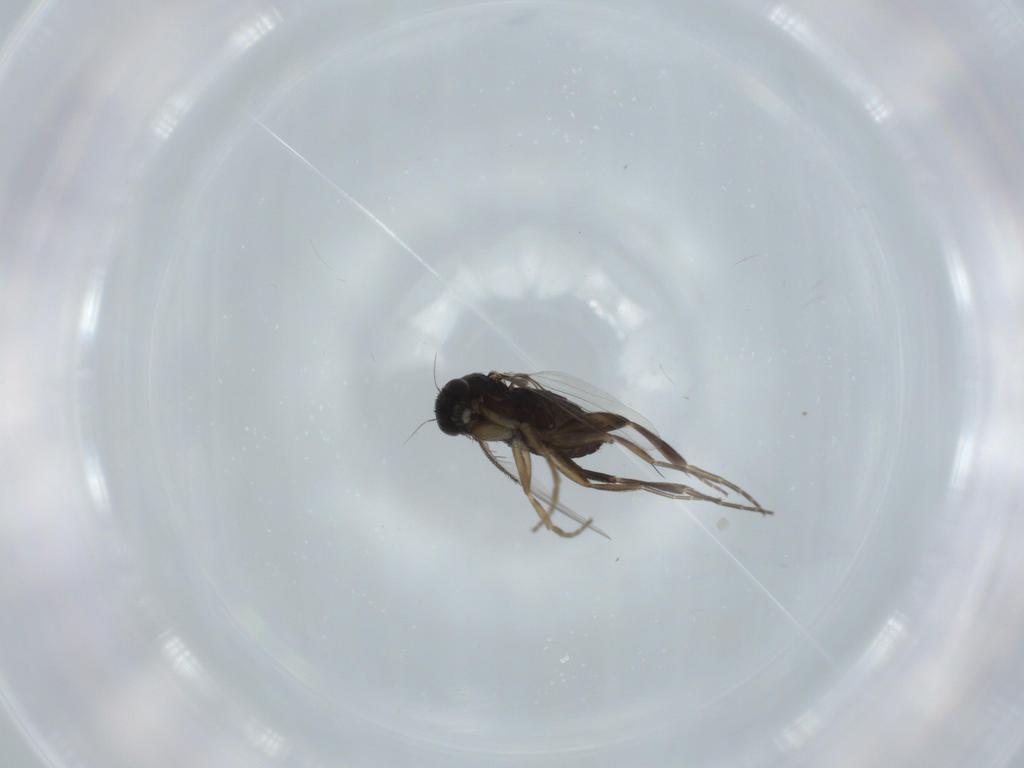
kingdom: Animalia
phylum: Arthropoda
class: Insecta
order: Diptera
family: Phoridae
